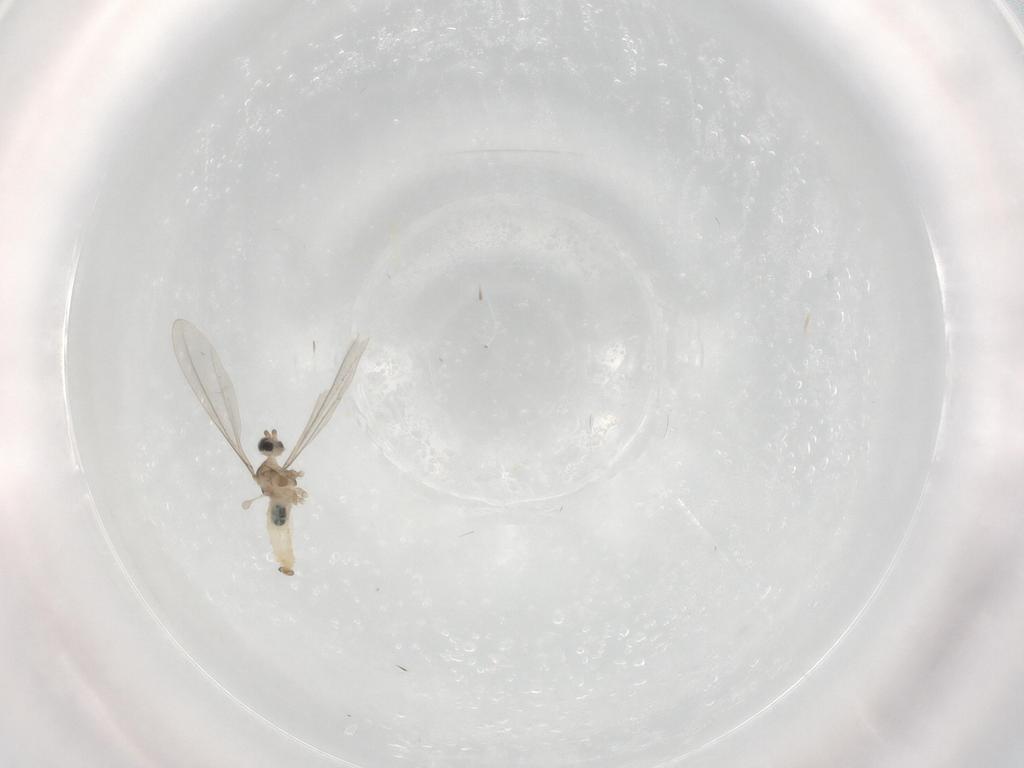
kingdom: Animalia
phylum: Arthropoda
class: Insecta
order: Diptera
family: Cecidomyiidae
